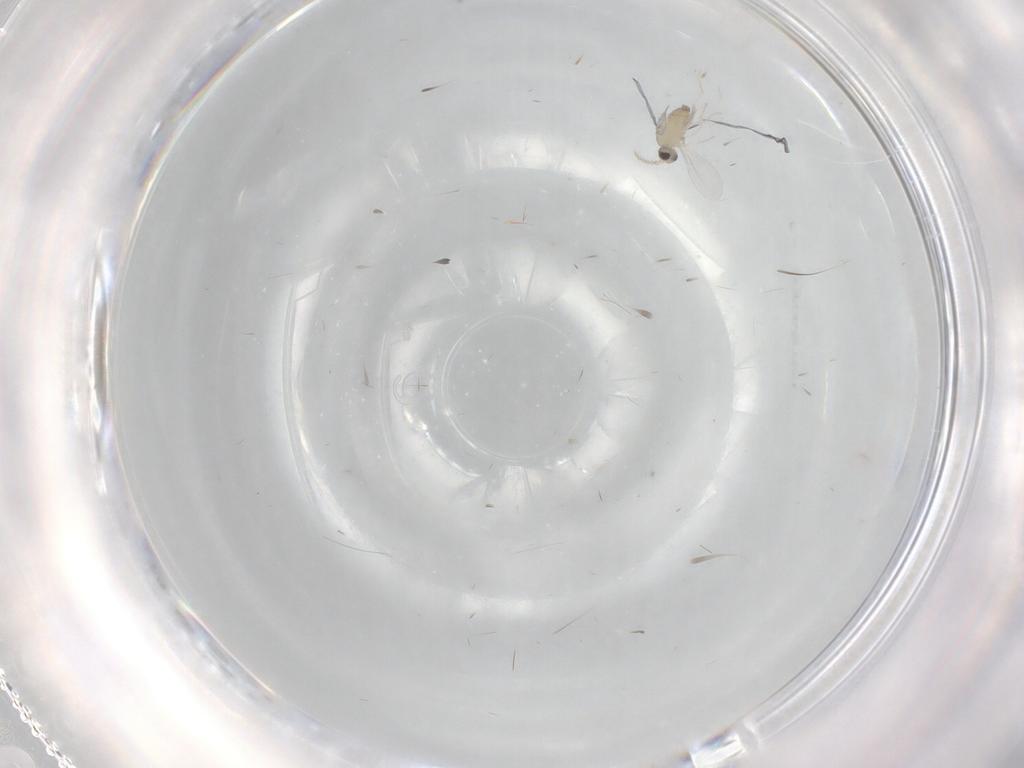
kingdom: Animalia
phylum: Arthropoda
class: Insecta
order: Diptera
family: Cecidomyiidae
